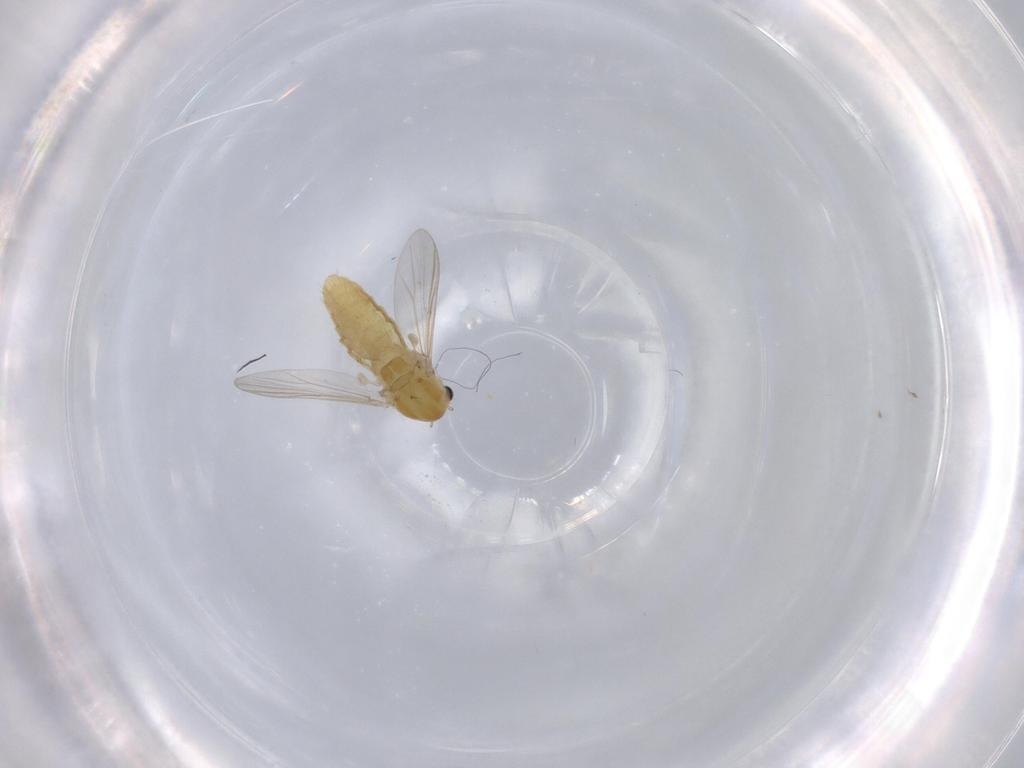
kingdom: Animalia
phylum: Arthropoda
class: Insecta
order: Diptera
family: Chironomidae
